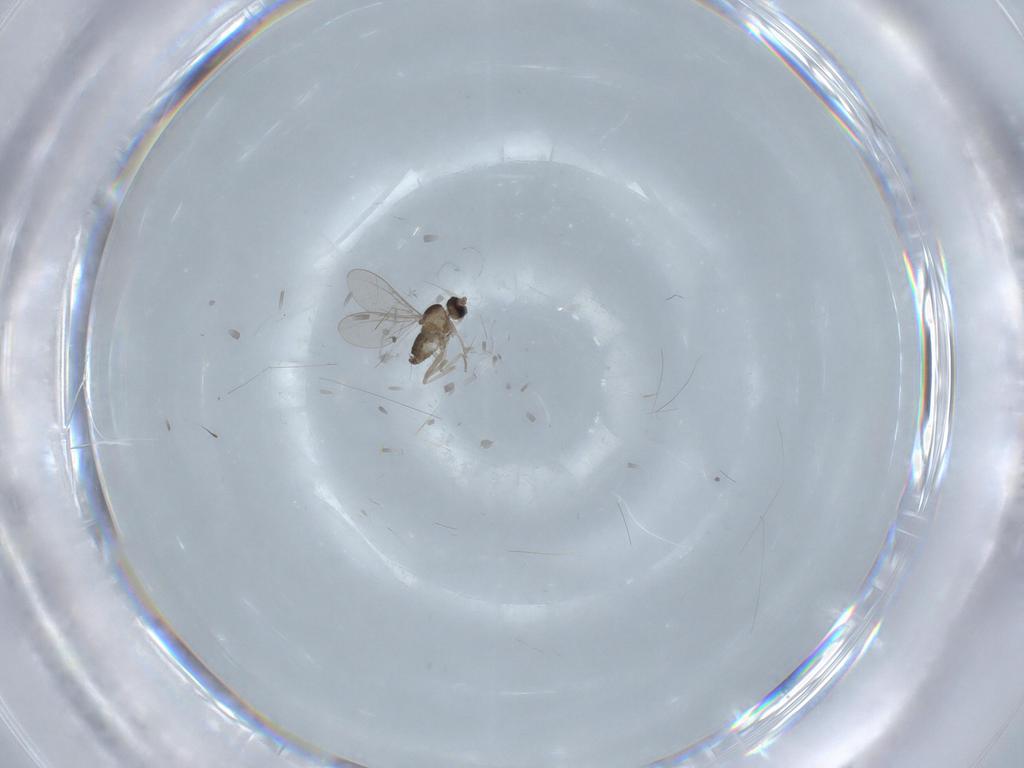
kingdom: Animalia
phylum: Arthropoda
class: Insecta
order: Diptera
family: Cecidomyiidae
